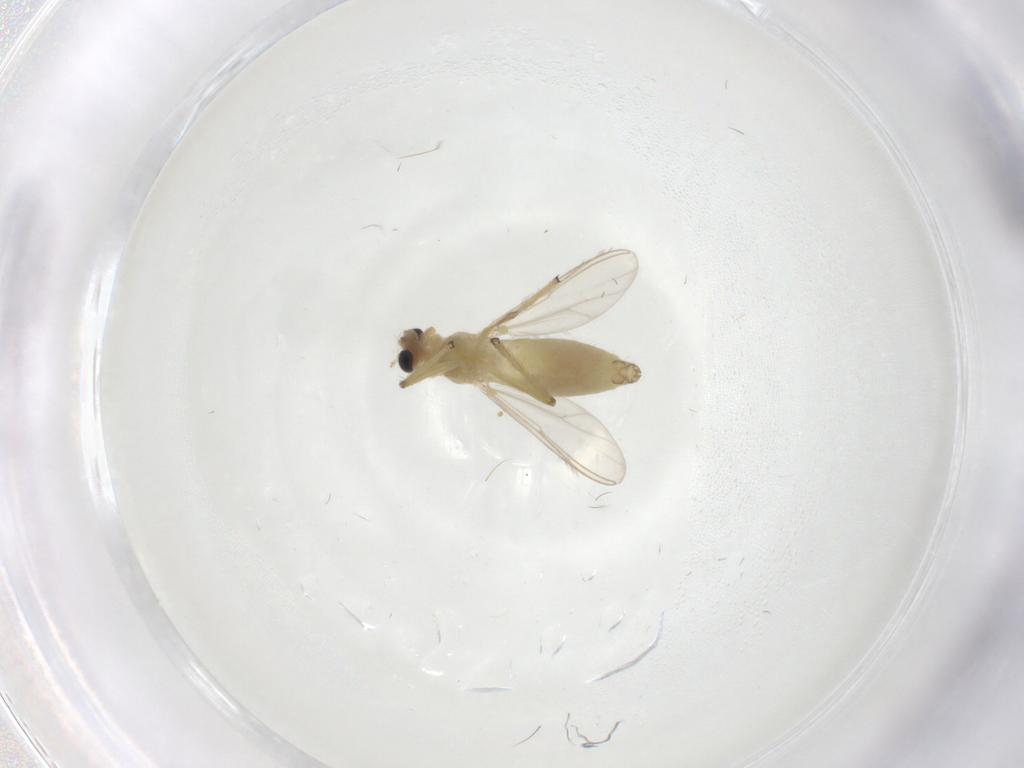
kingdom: Animalia
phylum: Arthropoda
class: Insecta
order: Diptera
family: Chironomidae
